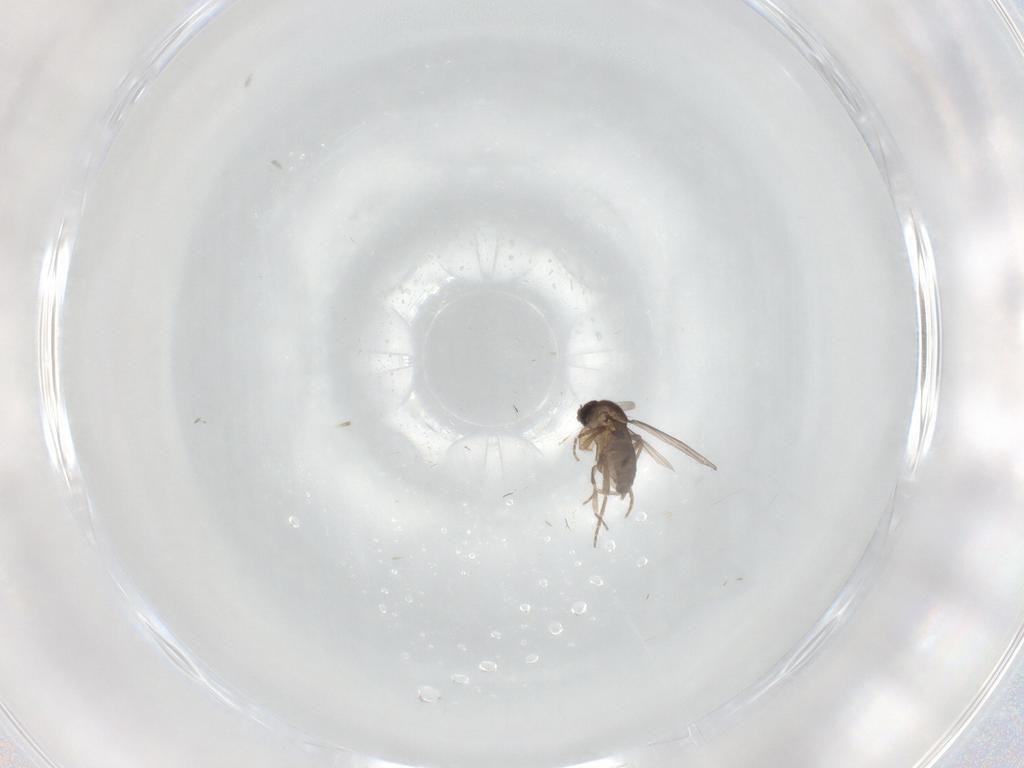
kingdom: Animalia
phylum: Arthropoda
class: Insecta
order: Diptera
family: Phoridae
